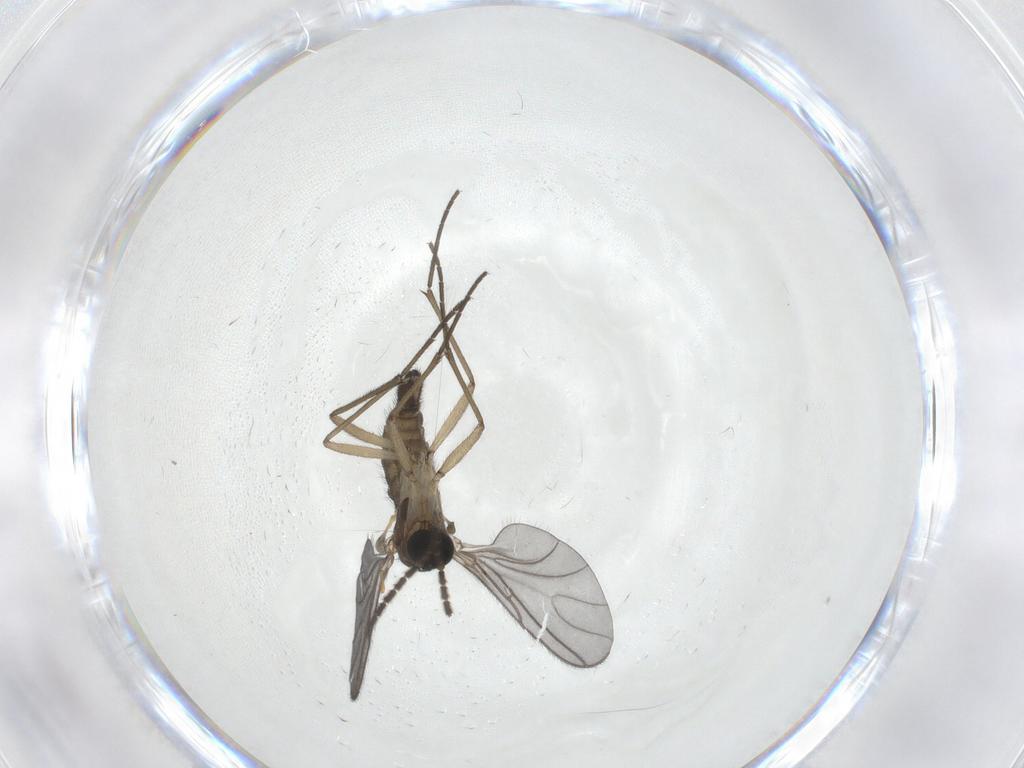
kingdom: Animalia
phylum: Arthropoda
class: Insecta
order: Diptera
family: Sciaridae
